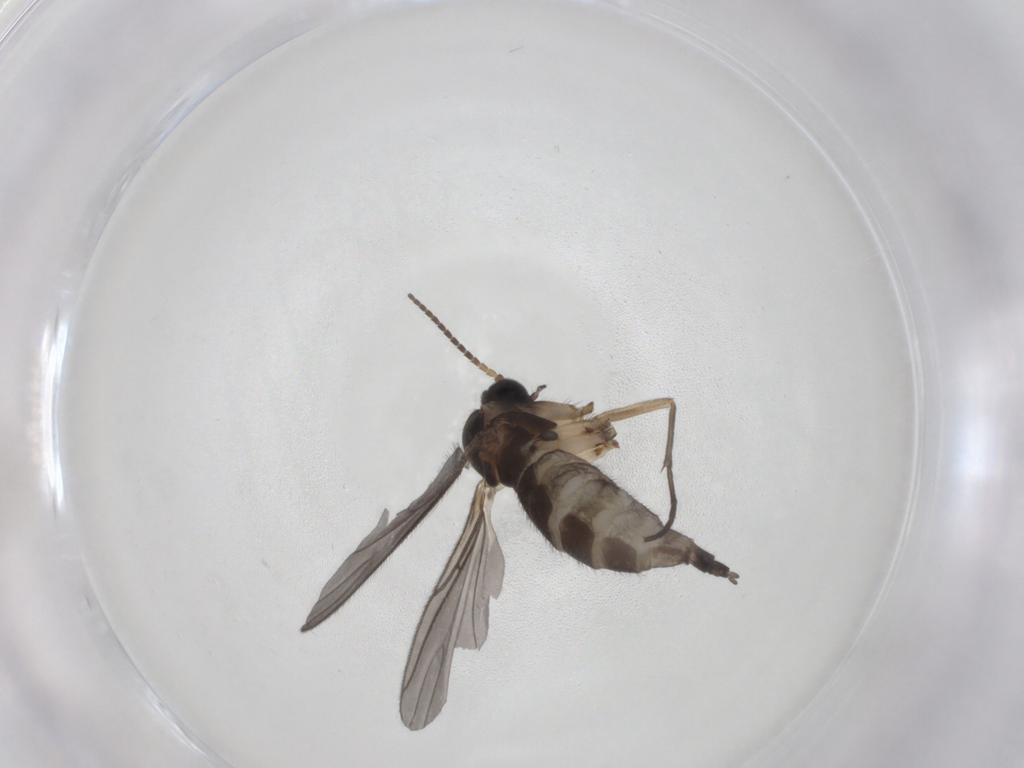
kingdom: Animalia
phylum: Arthropoda
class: Insecta
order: Diptera
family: Sciaridae
